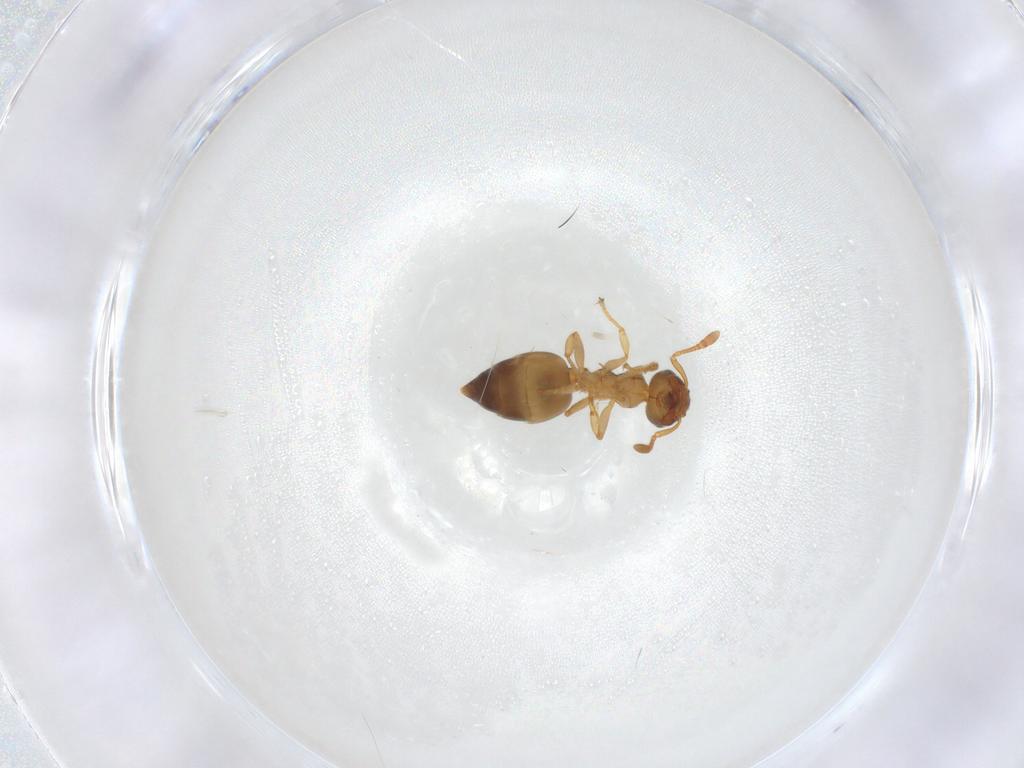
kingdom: Animalia
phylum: Arthropoda
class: Insecta
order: Hymenoptera
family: Formicidae
